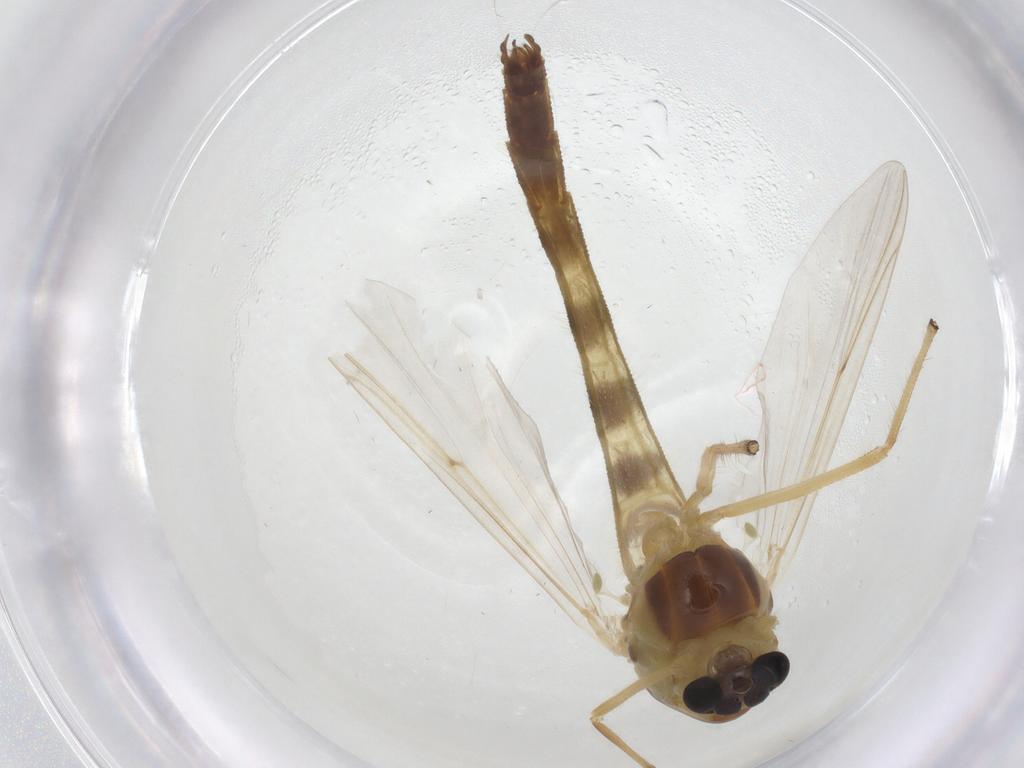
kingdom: Animalia
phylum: Arthropoda
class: Insecta
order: Diptera
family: Chironomidae
